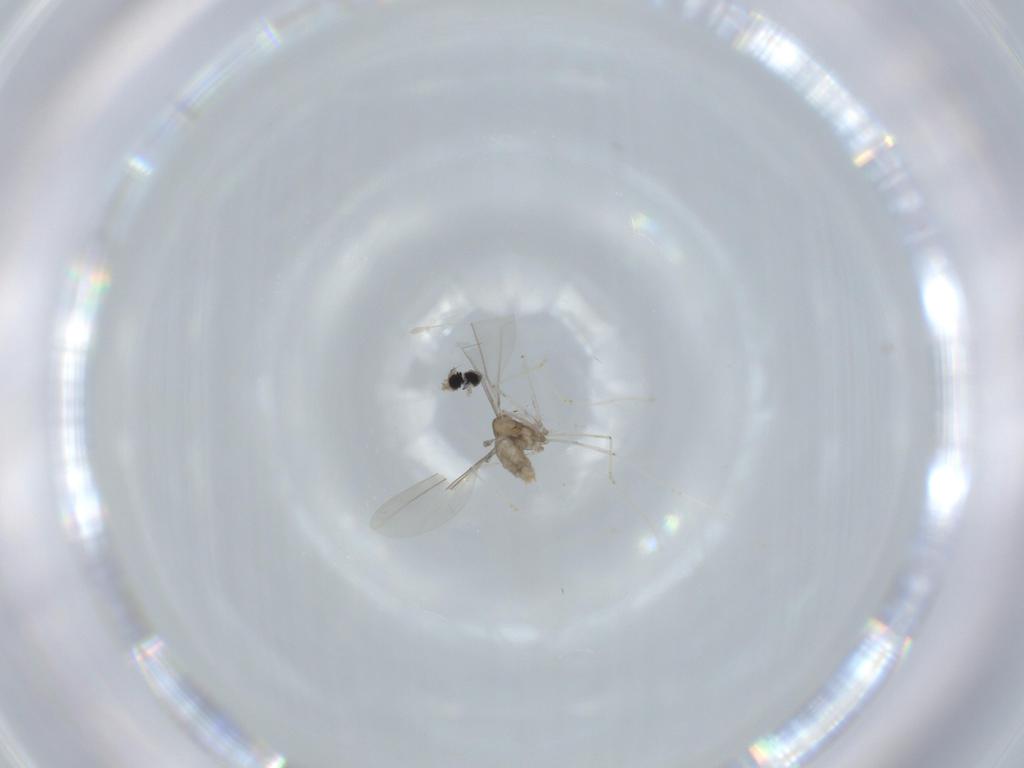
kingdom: Animalia
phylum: Arthropoda
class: Insecta
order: Diptera
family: Cecidomyiidae
